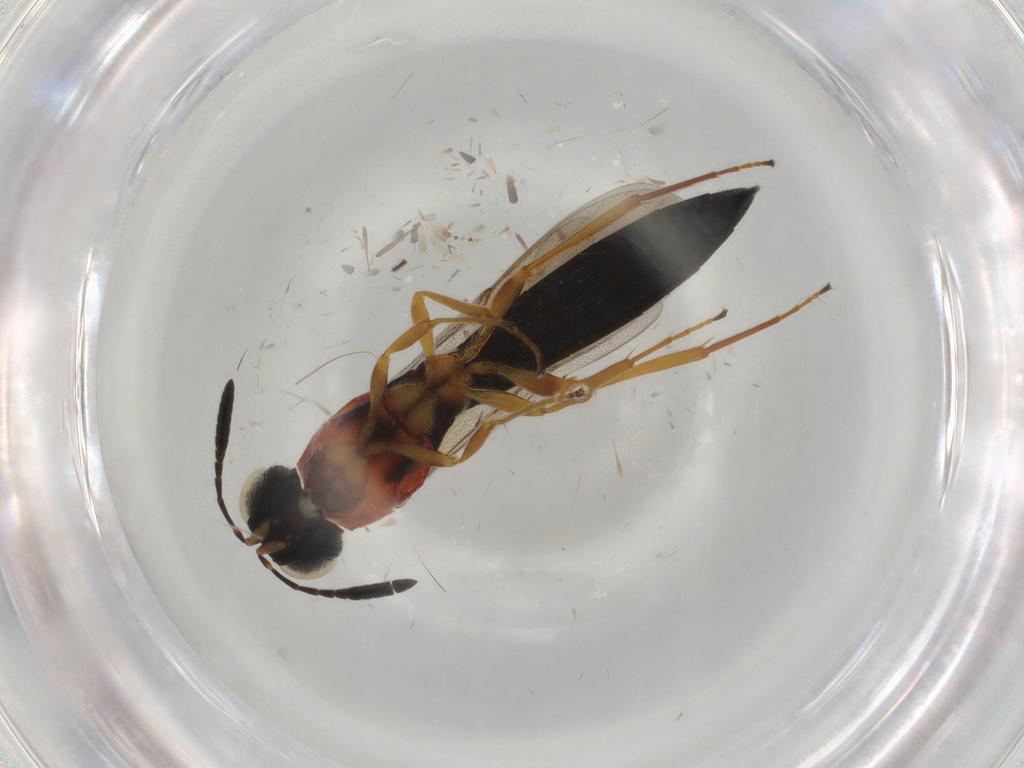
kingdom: Animalia
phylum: Arthropoda
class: Insecta
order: Hymenoptera
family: Scelionidae
